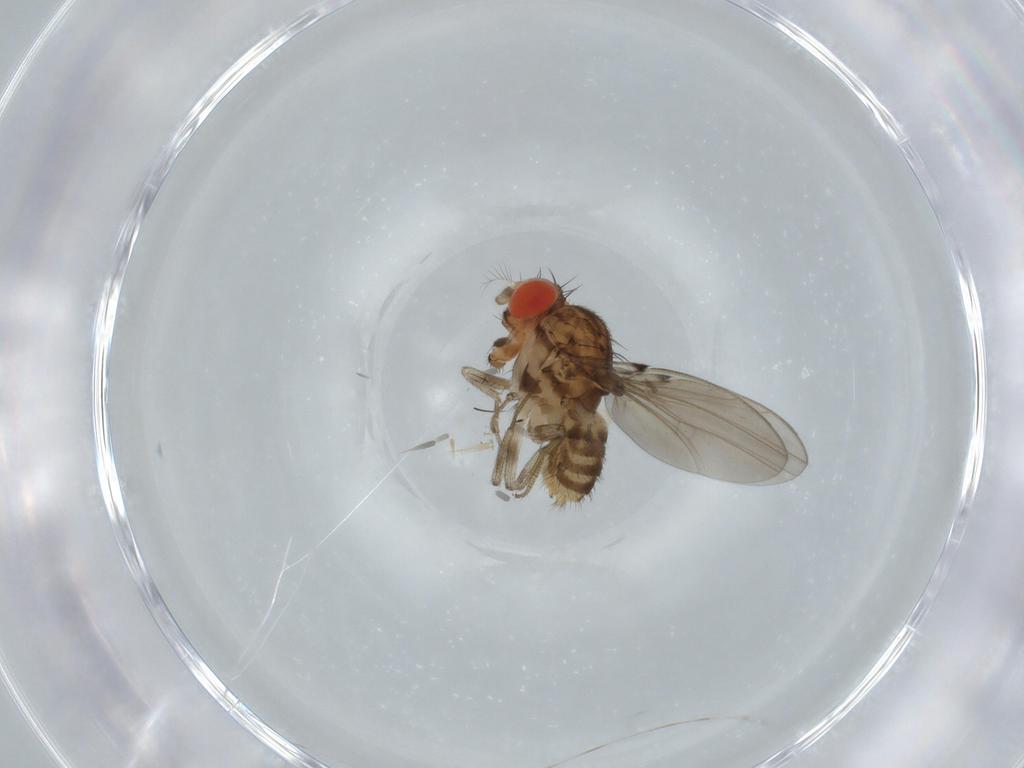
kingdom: Animalia
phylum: Arthropoda
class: Insecta
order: Diptera
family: Drosophilidae
